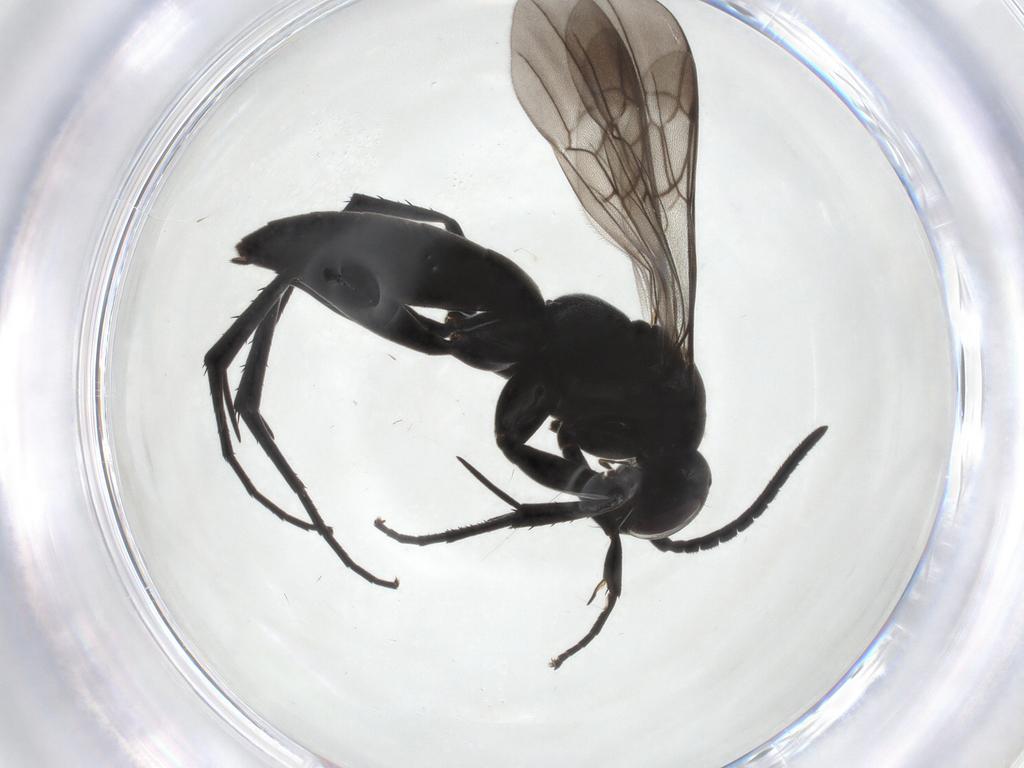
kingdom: Animalia
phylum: Arthropoda
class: Insecta
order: Hymenoptera
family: Pompilidae
